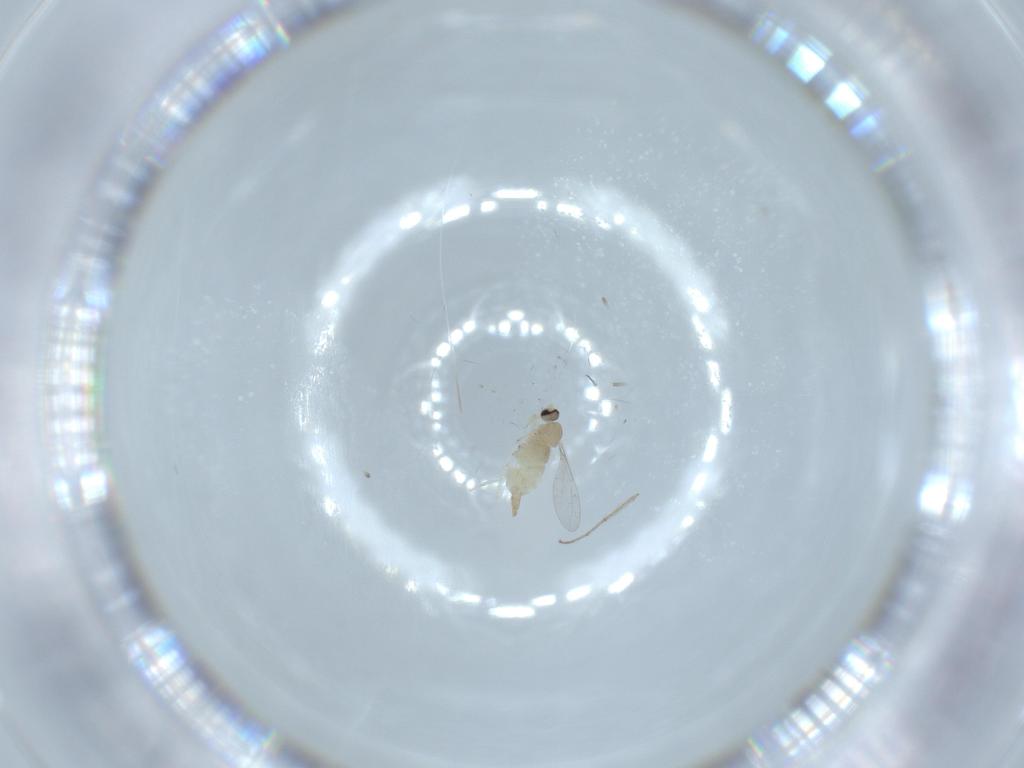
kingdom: Animalia
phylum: Arthropoda
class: Insecta
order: Diptera
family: Cecidomyiidae
